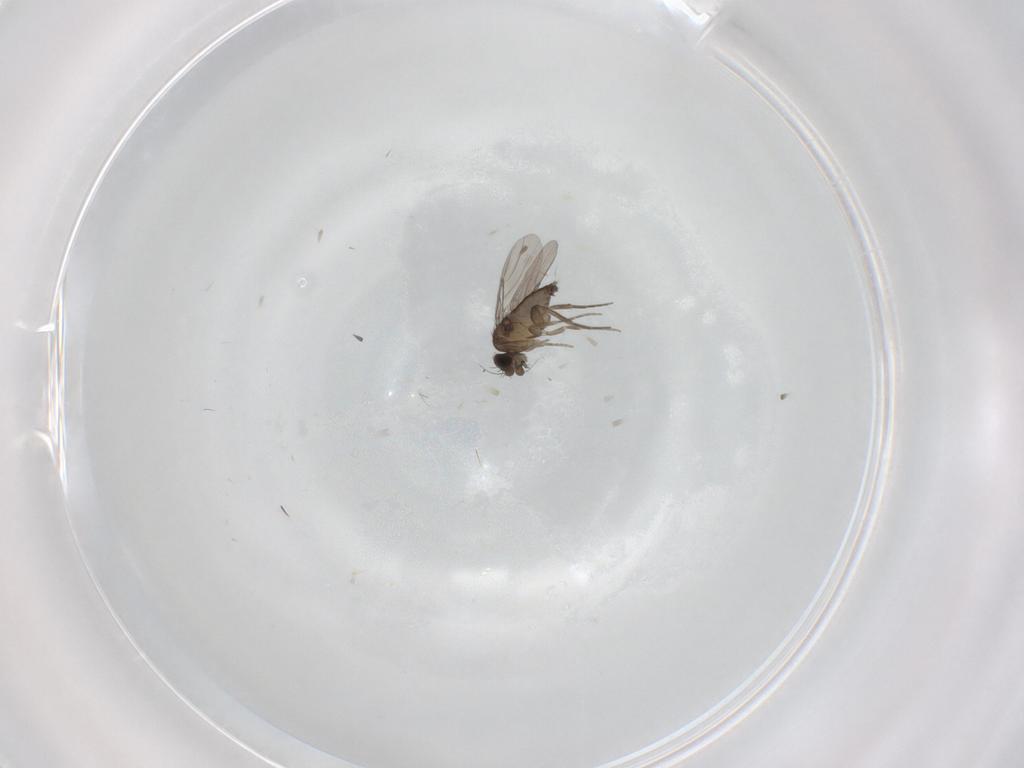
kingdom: Animalia
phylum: Arthropoda
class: Insecta
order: Diptera
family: Phoridae
